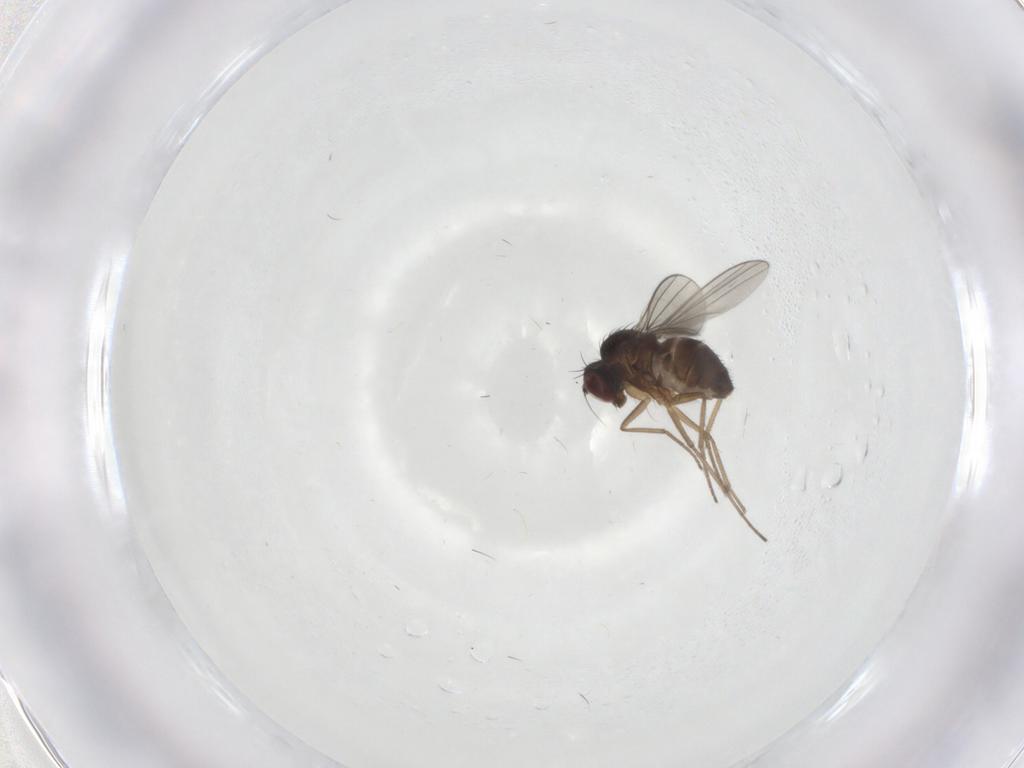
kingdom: Animalia
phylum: Arthropoda
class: Insecta
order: Diptera
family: Dolichopodidae
